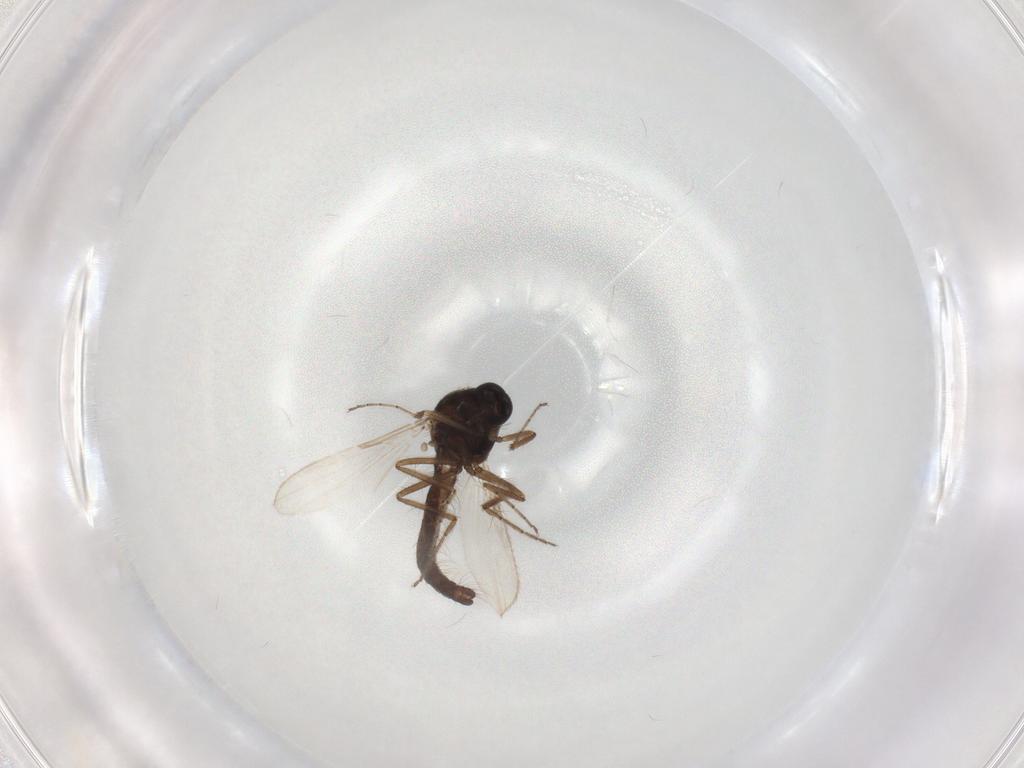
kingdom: Animalia
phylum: Arthropoda
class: Insecta
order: Diptera
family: Ceratopogonidae
